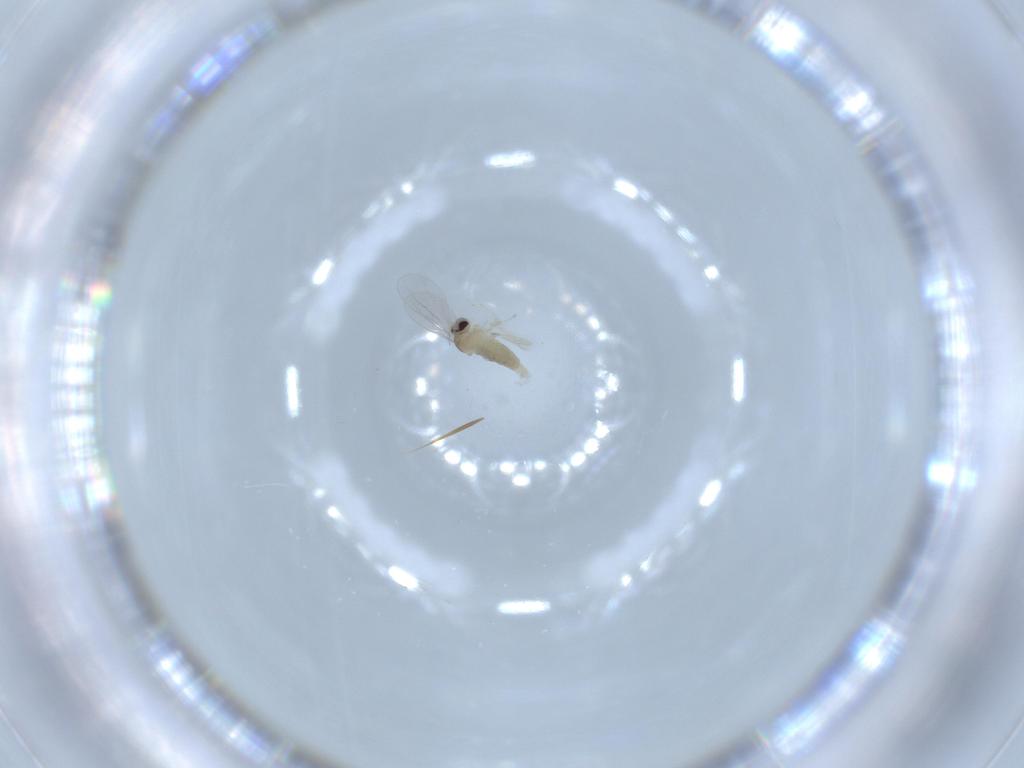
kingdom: Animalia
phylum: Arthropoda
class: Insecta
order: Diptera
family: Cecidomyiidae
